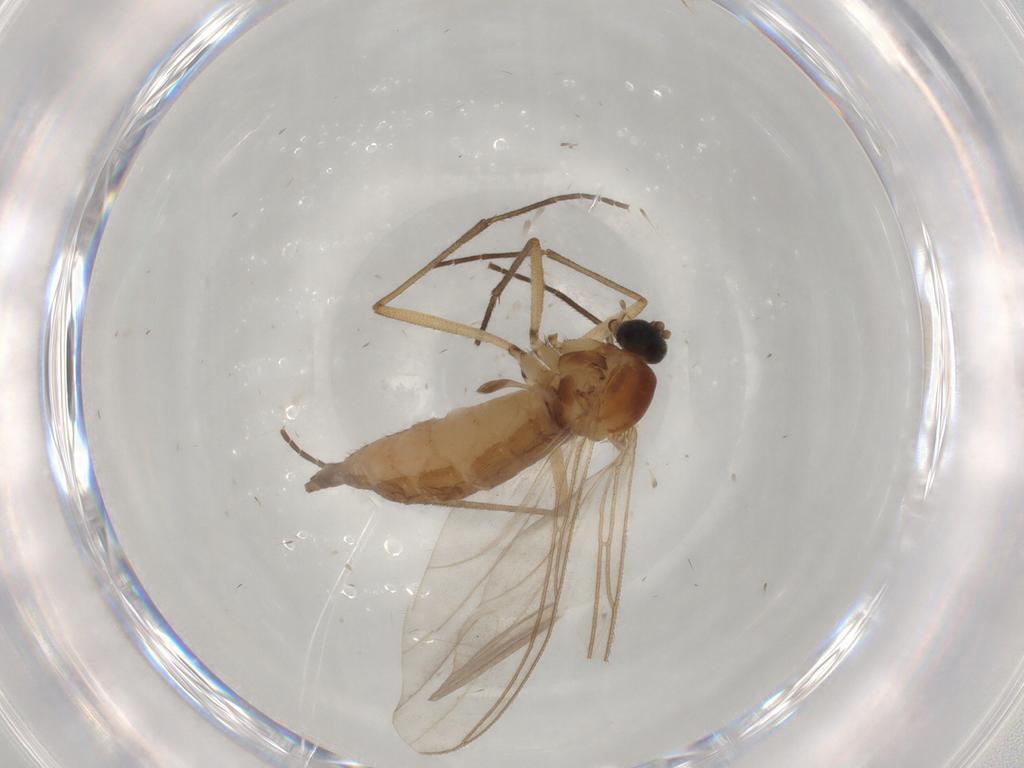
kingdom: Animalia
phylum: Arthropoda
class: Insecta
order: Diptera
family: Sciaridae
